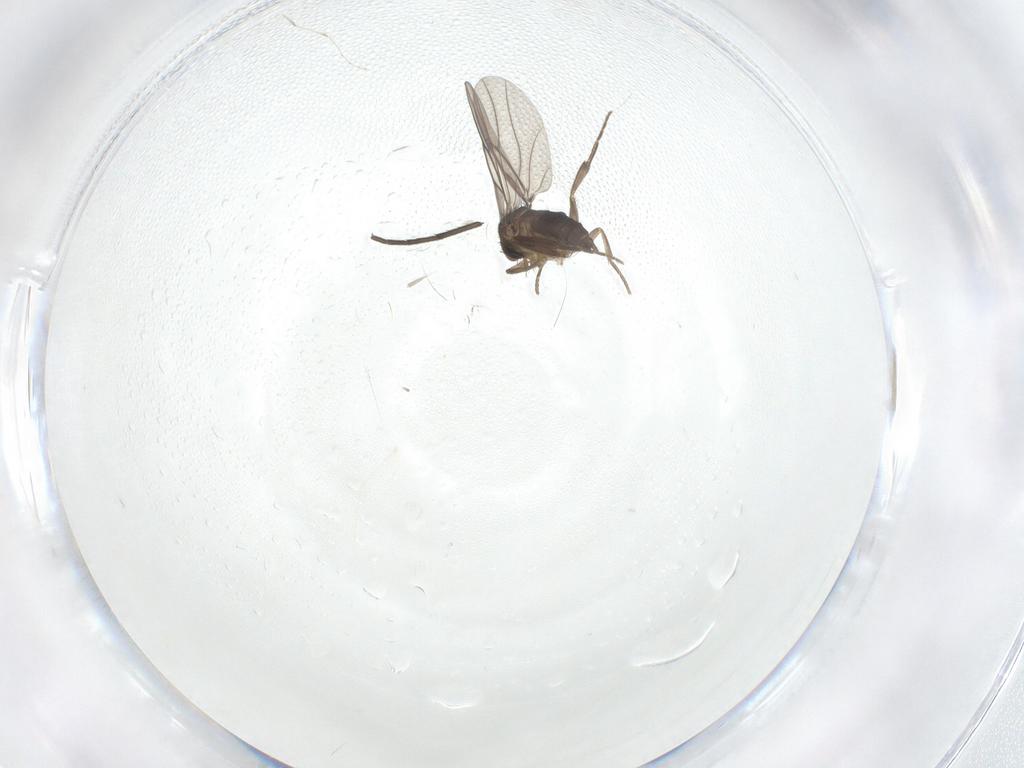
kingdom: Animalia
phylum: Arthropoda
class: Insecta
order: Diptera
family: Phoridae
